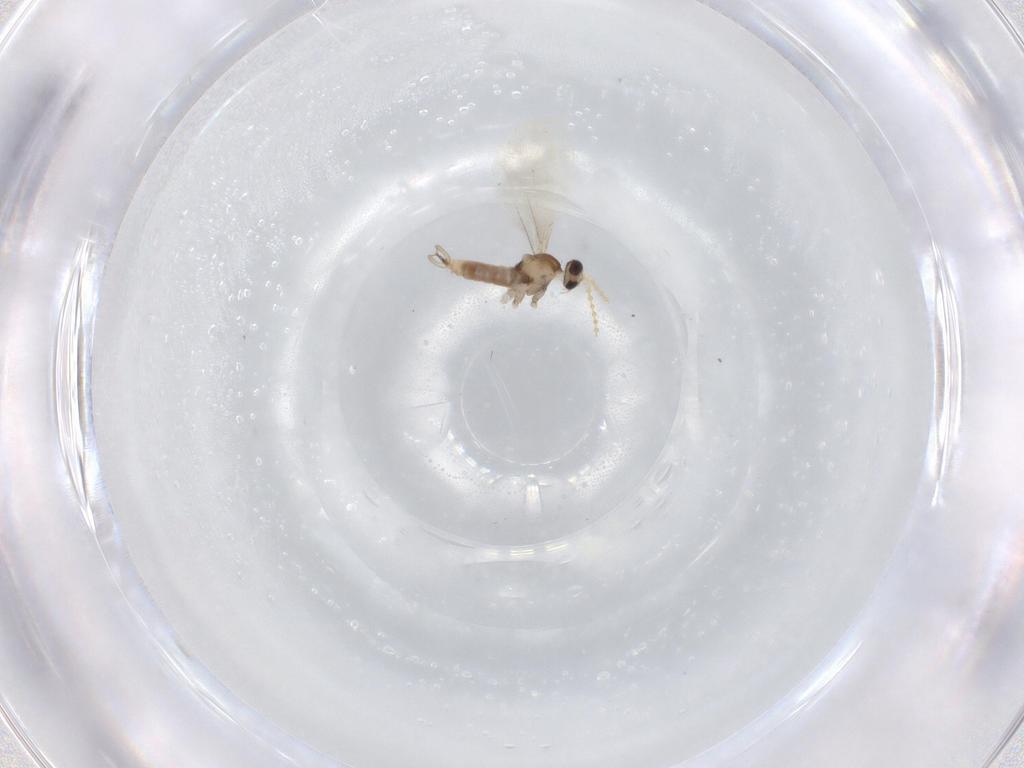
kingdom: Animalia
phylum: Arthropoda
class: Insecta
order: Diptera
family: Cecidomyiidae
